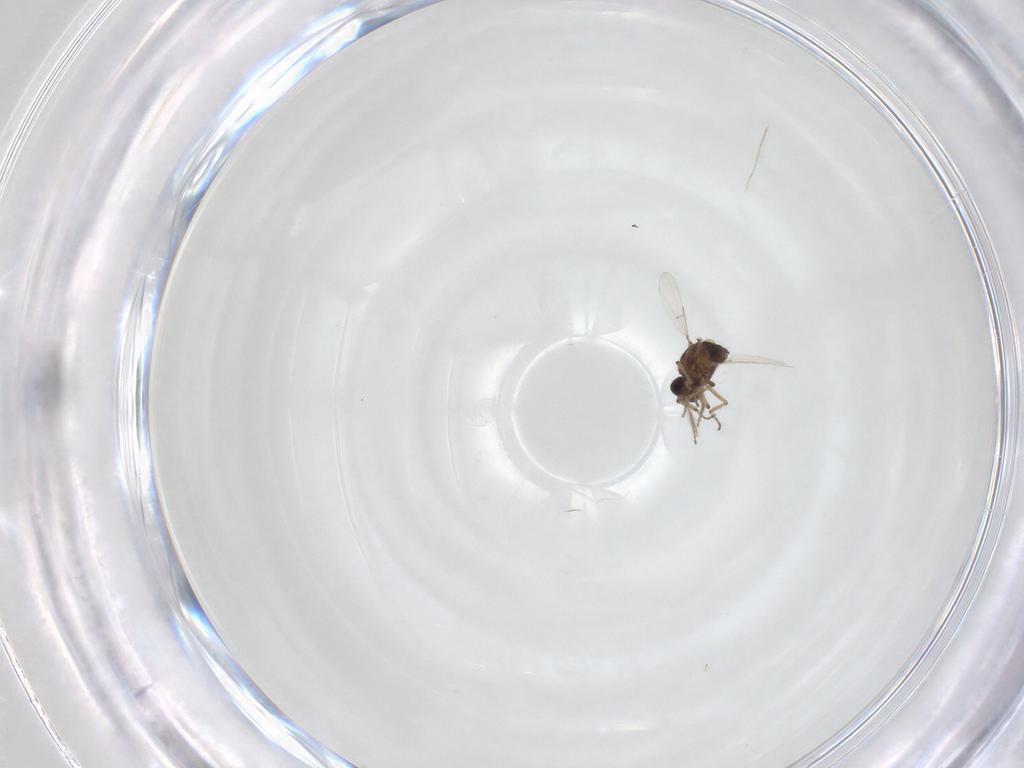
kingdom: Animalia
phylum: Arthropoda
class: Insecta
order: Diptera
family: Ceratopogonidae
